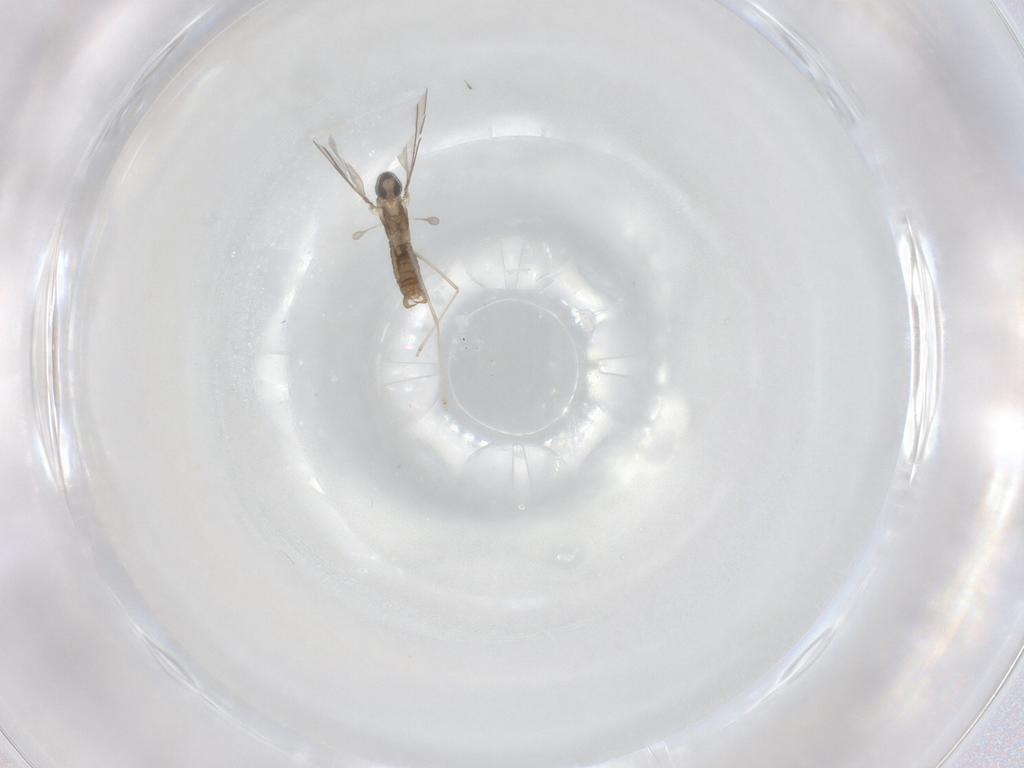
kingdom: Animalia
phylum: Arthropoda
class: Insecta
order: Diptera
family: Cecidomyiidae
